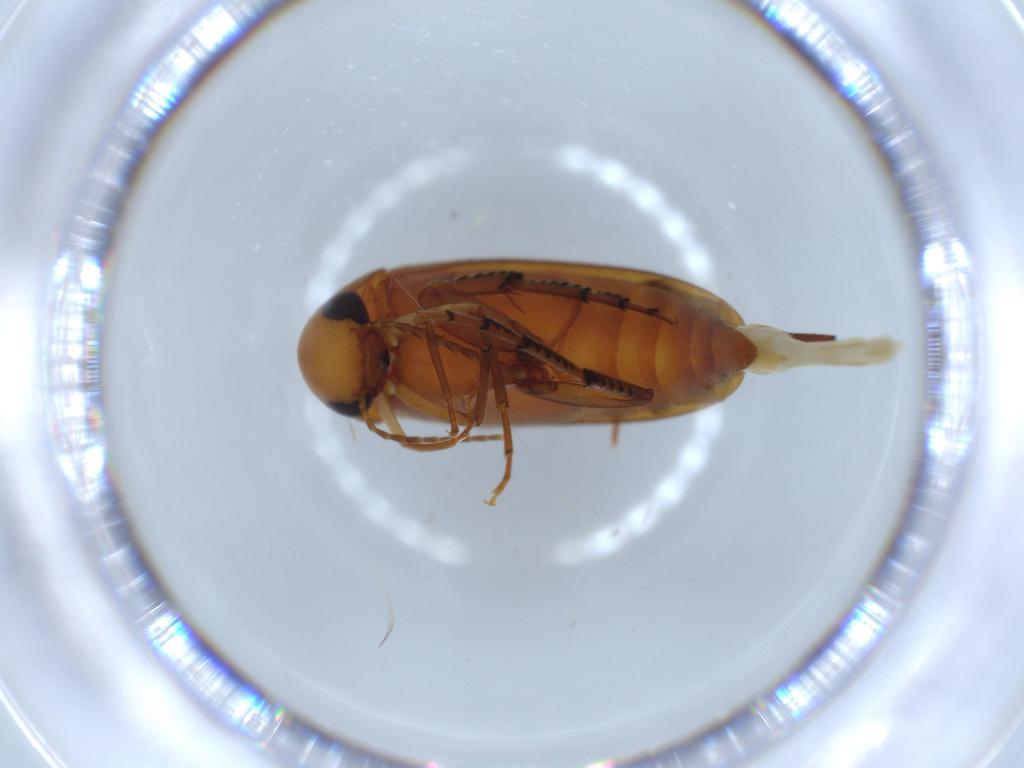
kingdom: Animalia
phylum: Arthropoda
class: Insecta
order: Coleoptera
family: Mordellidae
